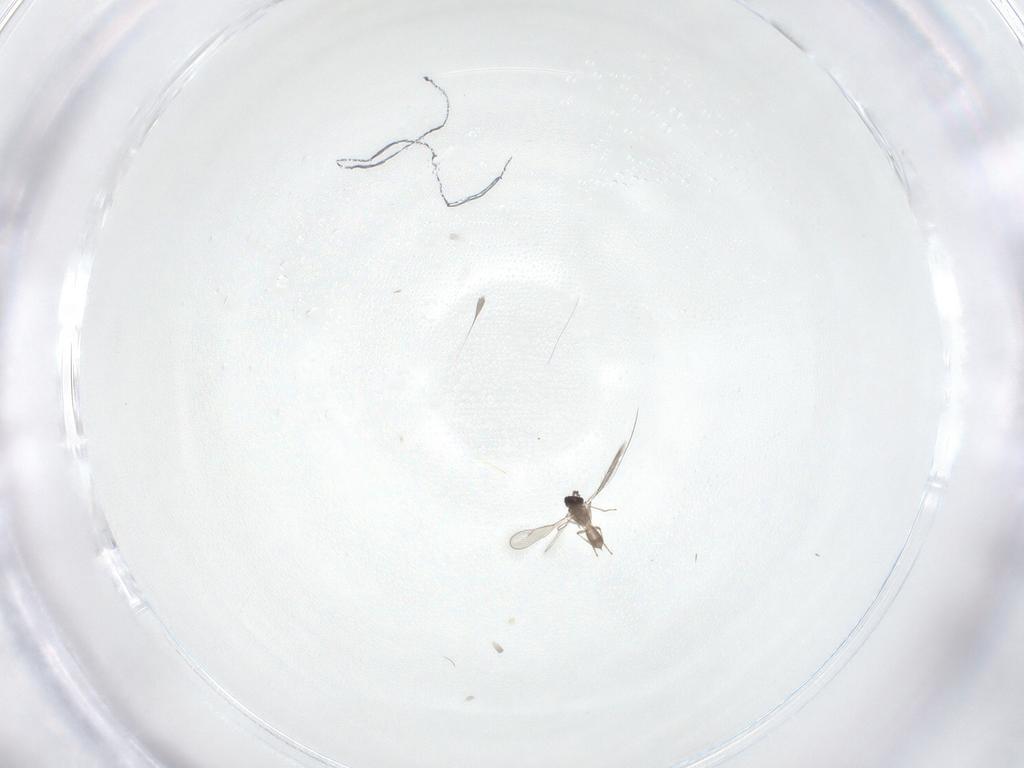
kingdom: Animalia
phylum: Arthropoda
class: Insecta
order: Hymenoptera
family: Eulophidae
